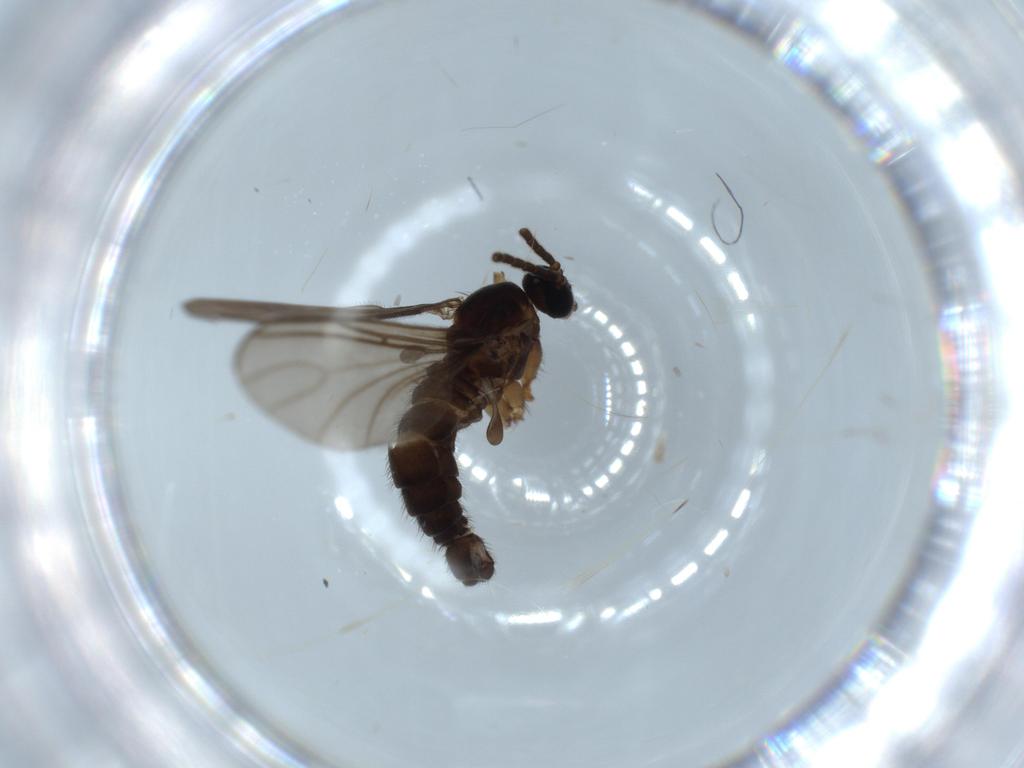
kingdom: Animalia
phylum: Arthropoda
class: Insecta
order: Diptera
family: Sciaridae
